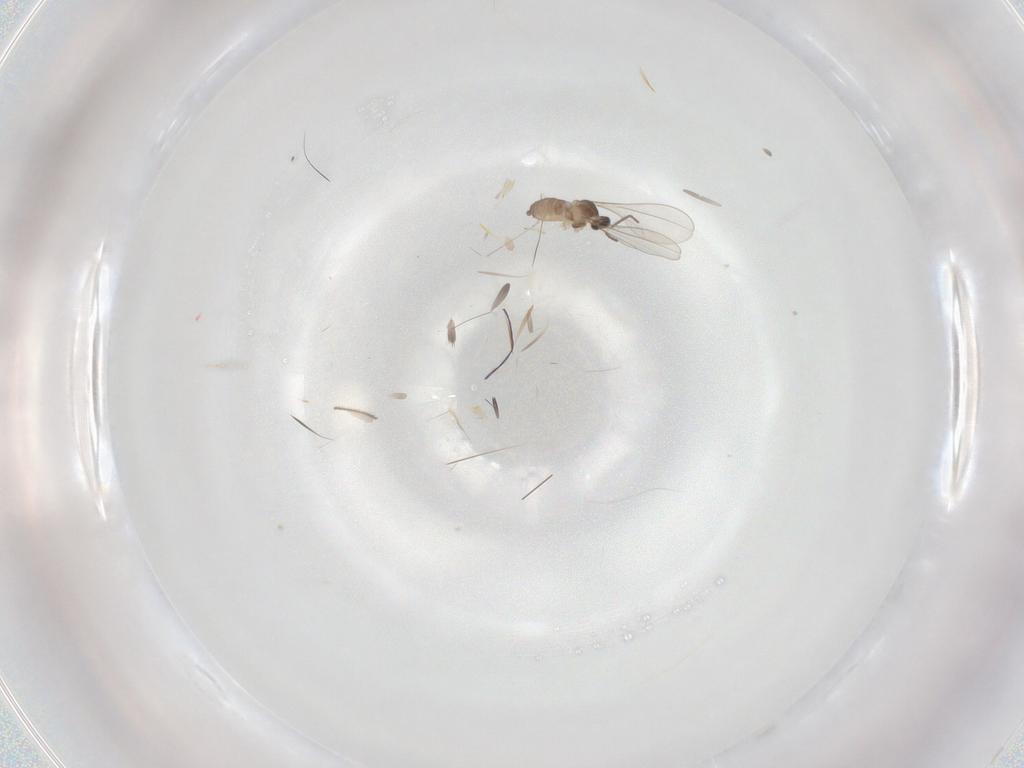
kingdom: Animalia
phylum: Arthropoda
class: Insecta
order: Diptera
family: Cecidomyiidae
